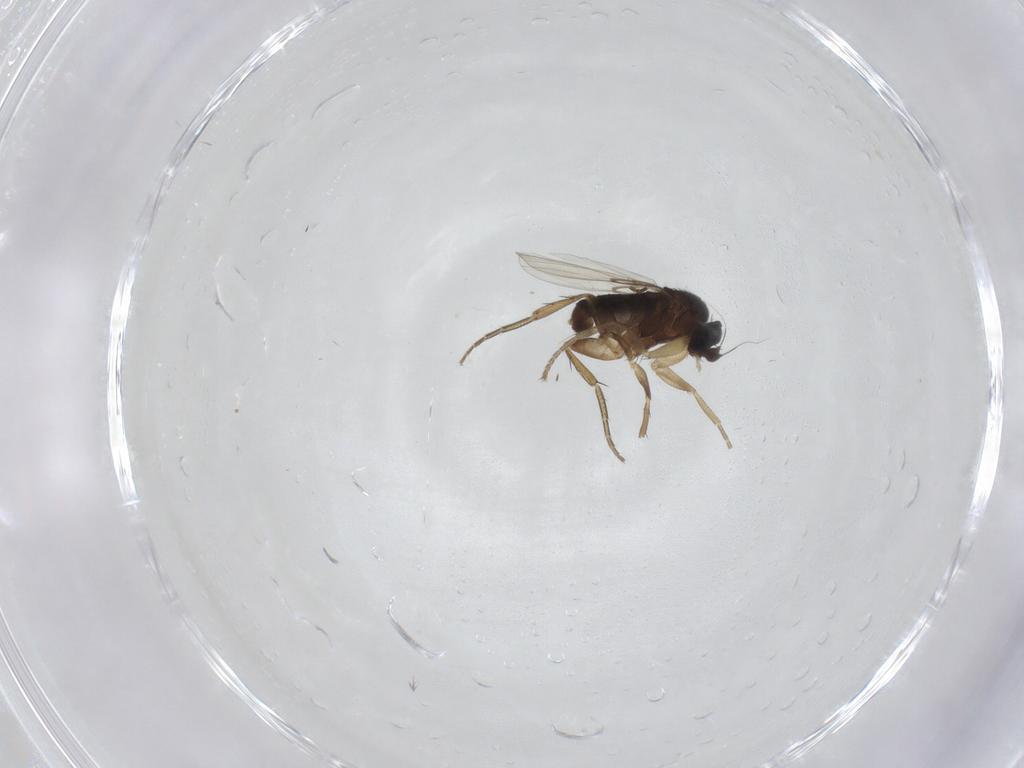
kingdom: Animalia
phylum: Arthropoda
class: Insecta
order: Diptera
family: Phoridae
